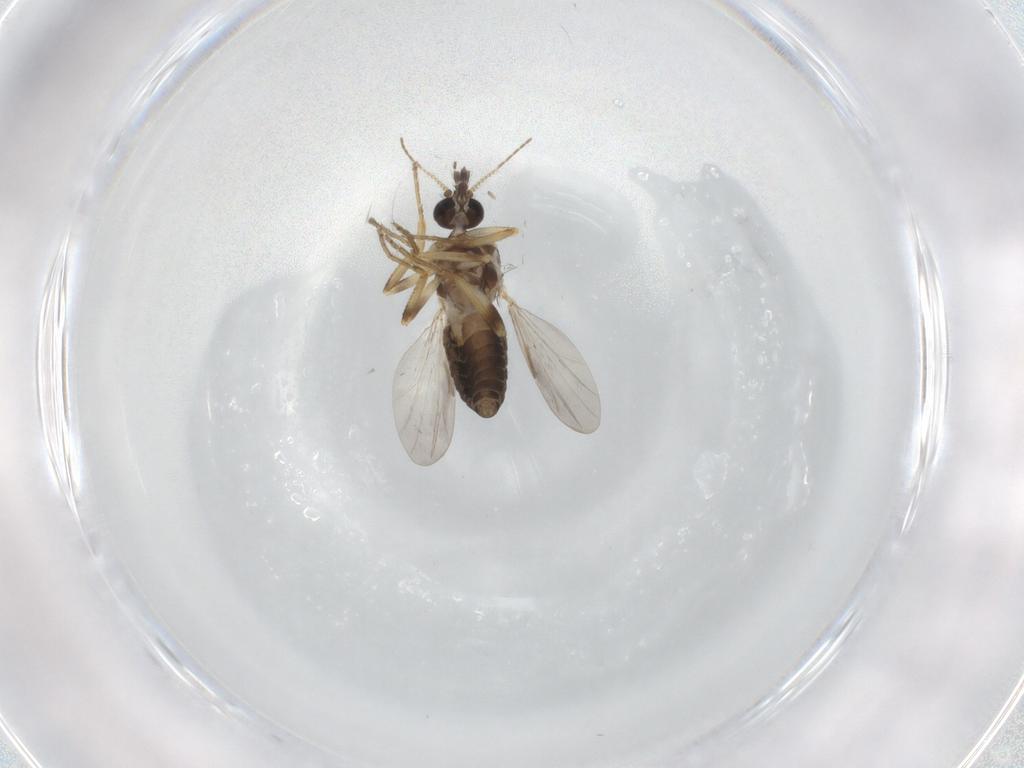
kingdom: Animalia
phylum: Arthropoda
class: Insecta
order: Diptera
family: Ceratopogonidae
